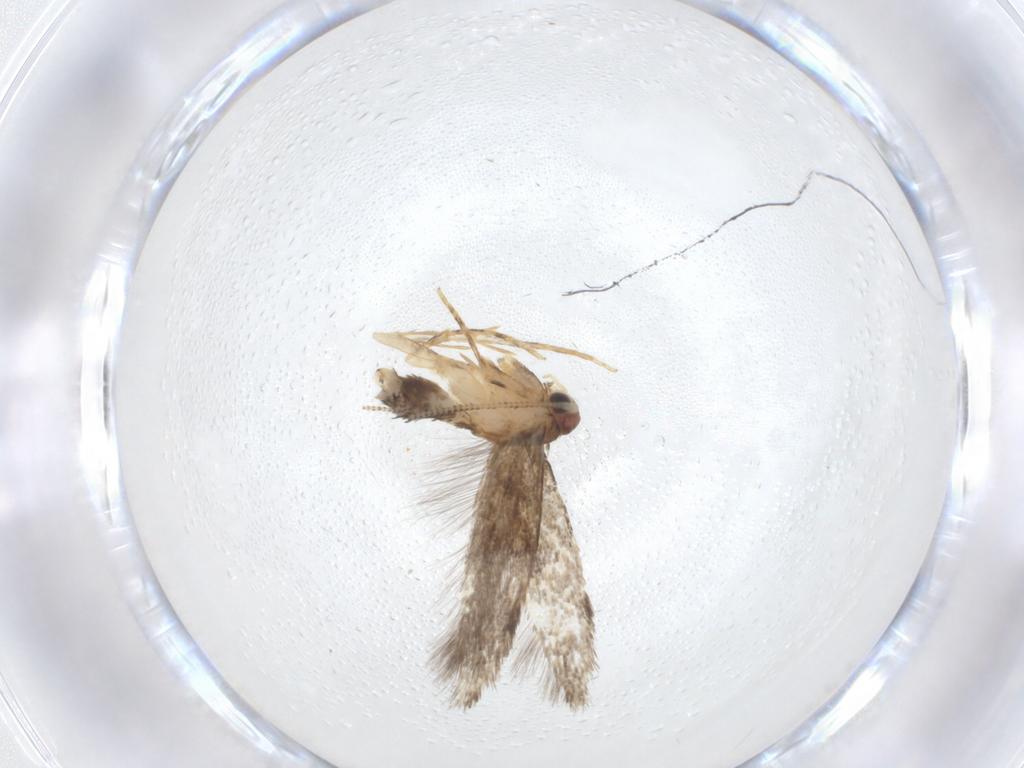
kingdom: Animalia
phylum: Arthropoda
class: Insecta
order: Lepidoptera
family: Tineidae
